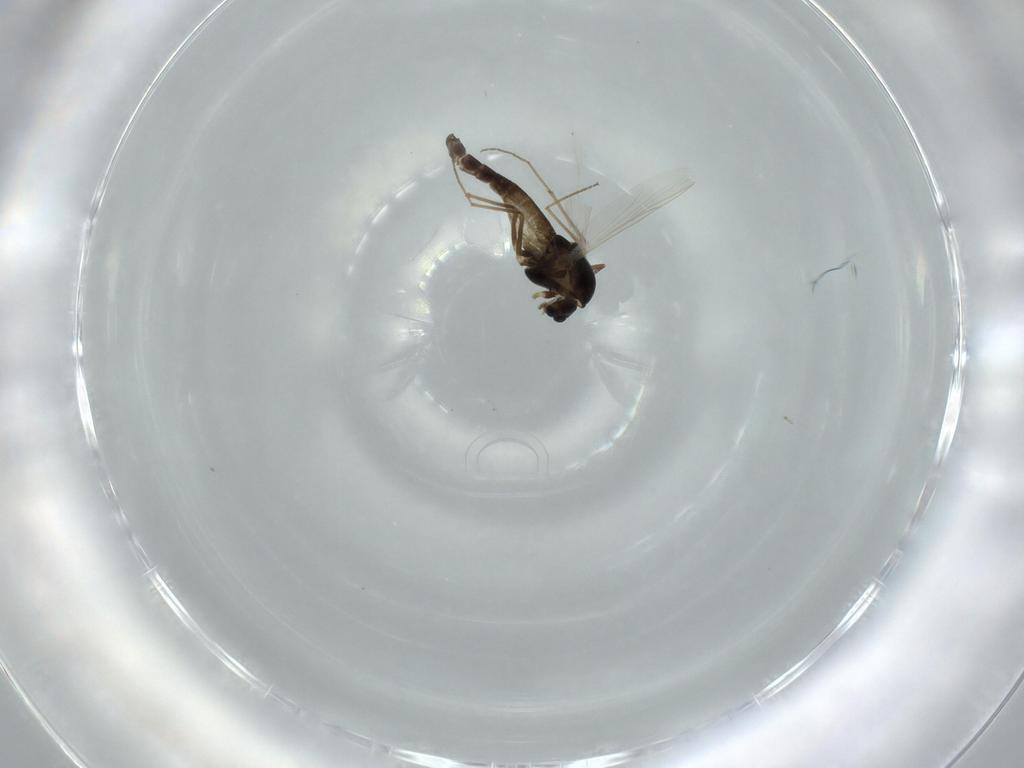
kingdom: Animalia
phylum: Arthropoda
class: Insecta
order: Diptera
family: Chironomidae
